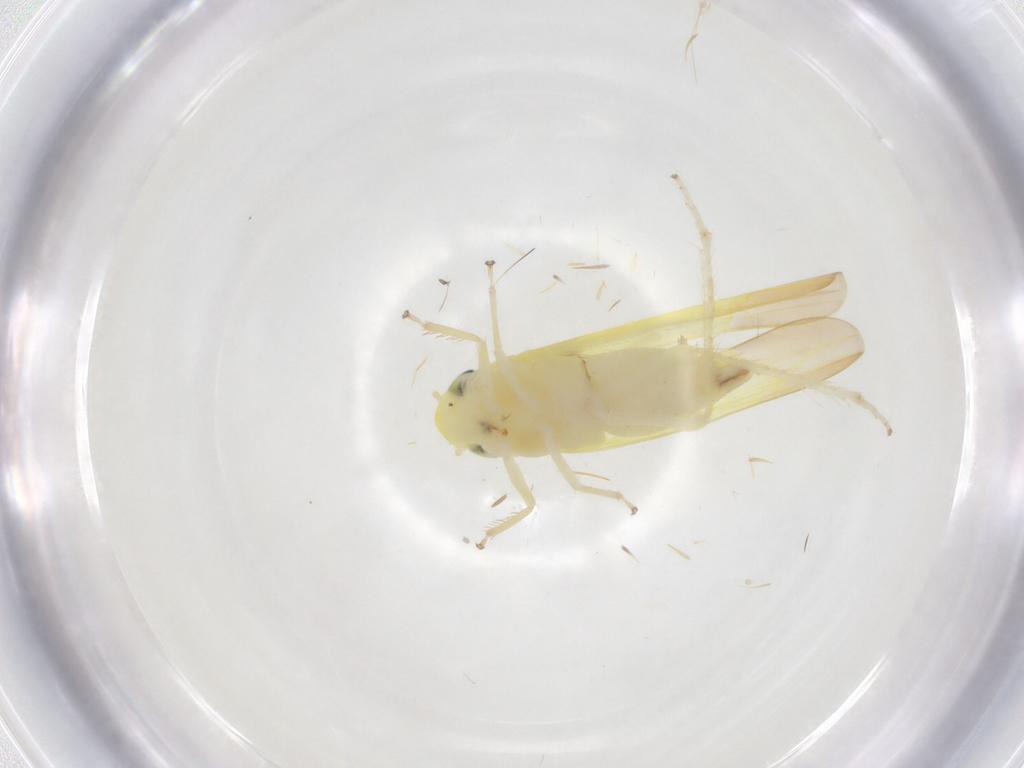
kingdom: Animalia
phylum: Arthropoda
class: Insecta
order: Hemiptera
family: Cicadellidae
